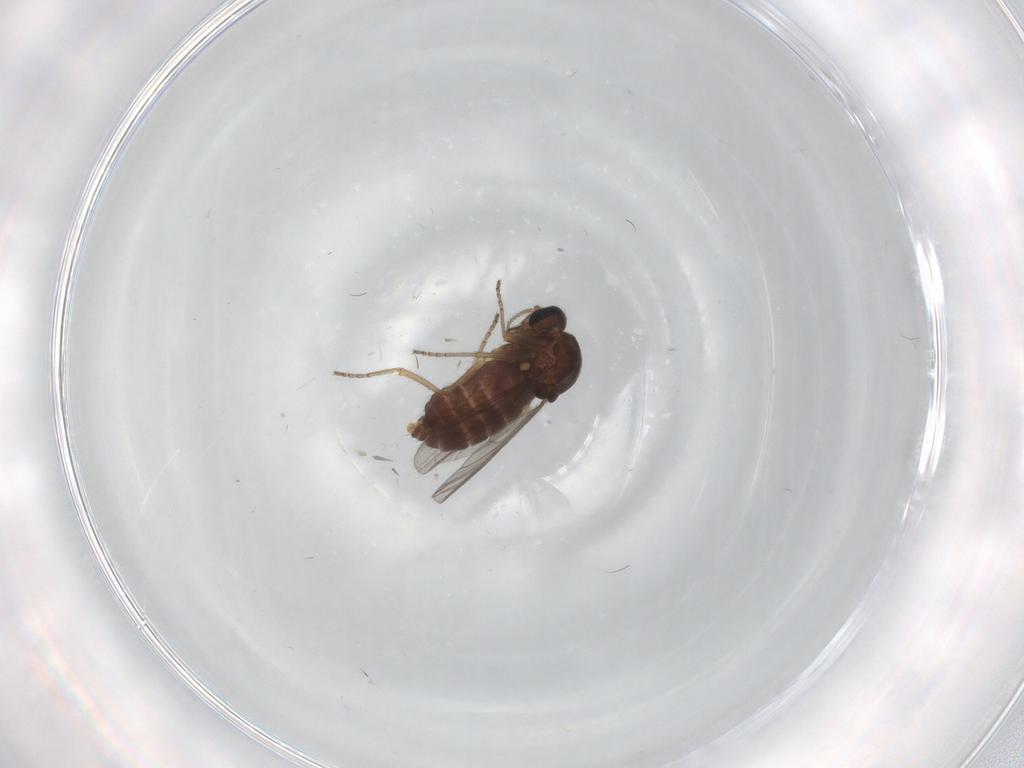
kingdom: Animalia
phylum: Arthropoda
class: Insecta
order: Diptera
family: Ceratopogonidae
